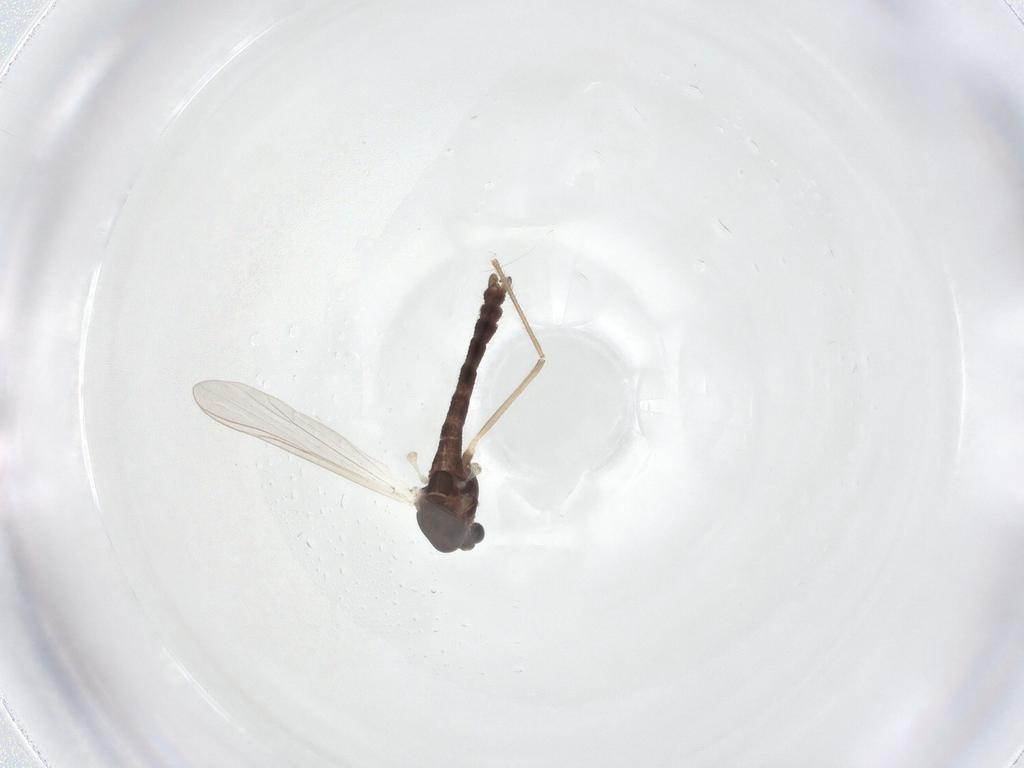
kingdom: Animalia
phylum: Arthropoda
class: Insecta
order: Diptera
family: Chironomidae
